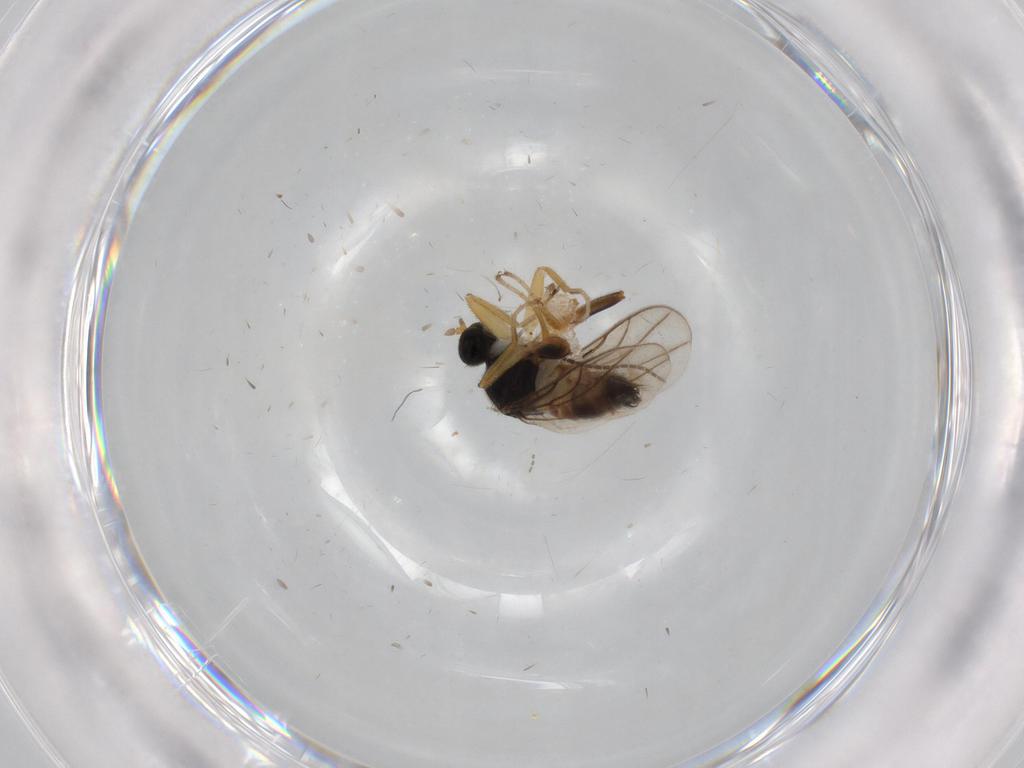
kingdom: Animalia
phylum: Arthropoda
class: Insecta
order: Diptera
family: Hybotidae
